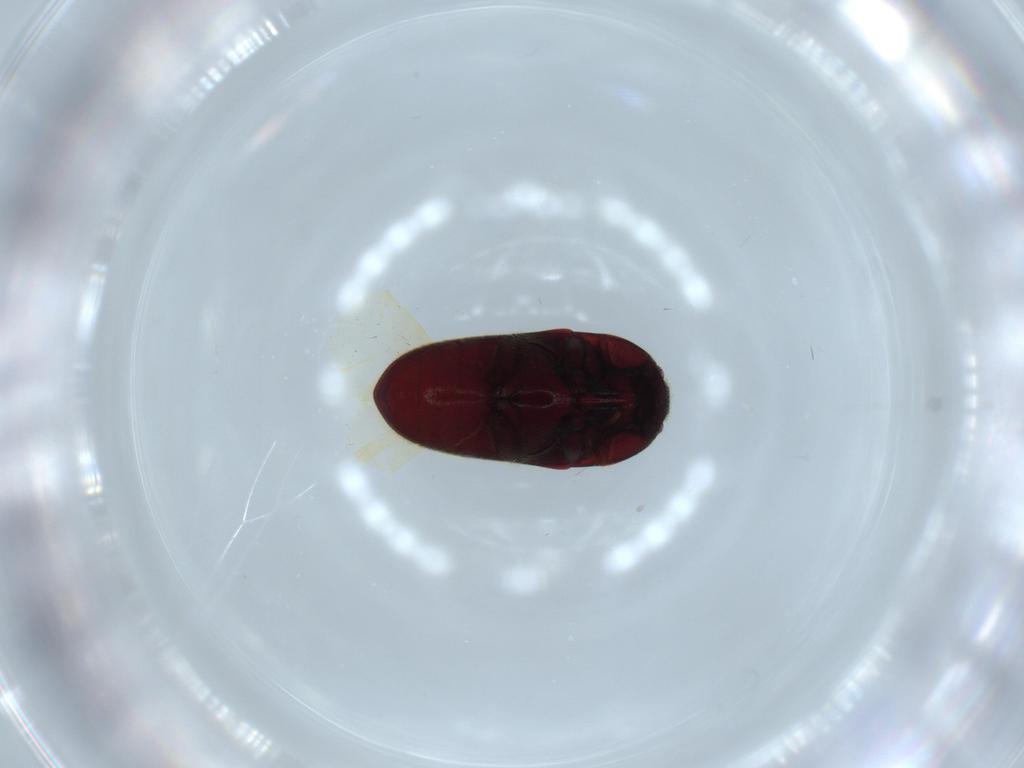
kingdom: Animalia
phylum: Arthropoda
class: Insecta
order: Coleoptera
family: Throscidae
